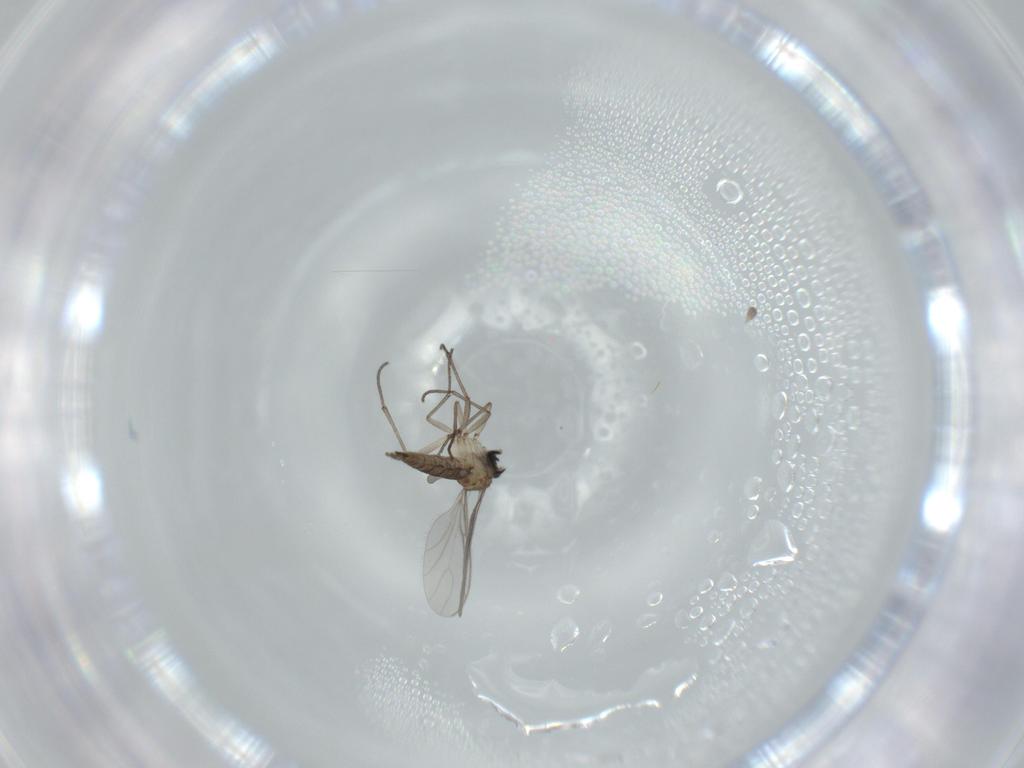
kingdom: Animalia
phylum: Arthropoda
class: Insecta
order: Diptera
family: Sciaridae
